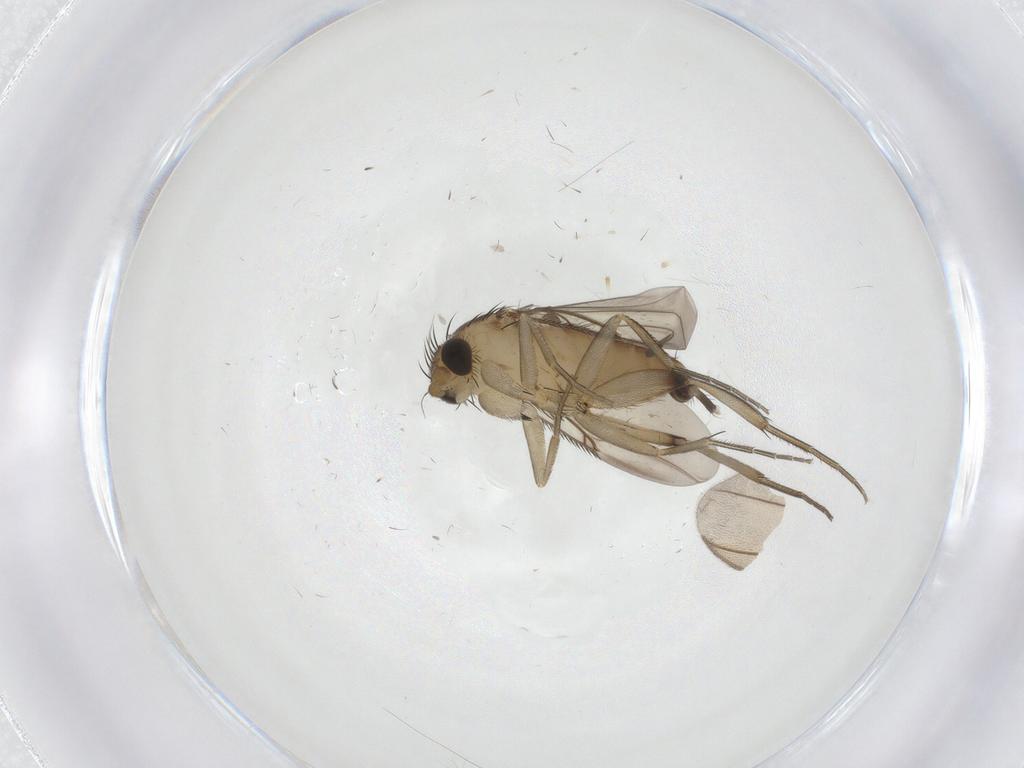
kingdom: Animalia
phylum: Arthropoda
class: Insecta
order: Diptera
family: Phoridae
